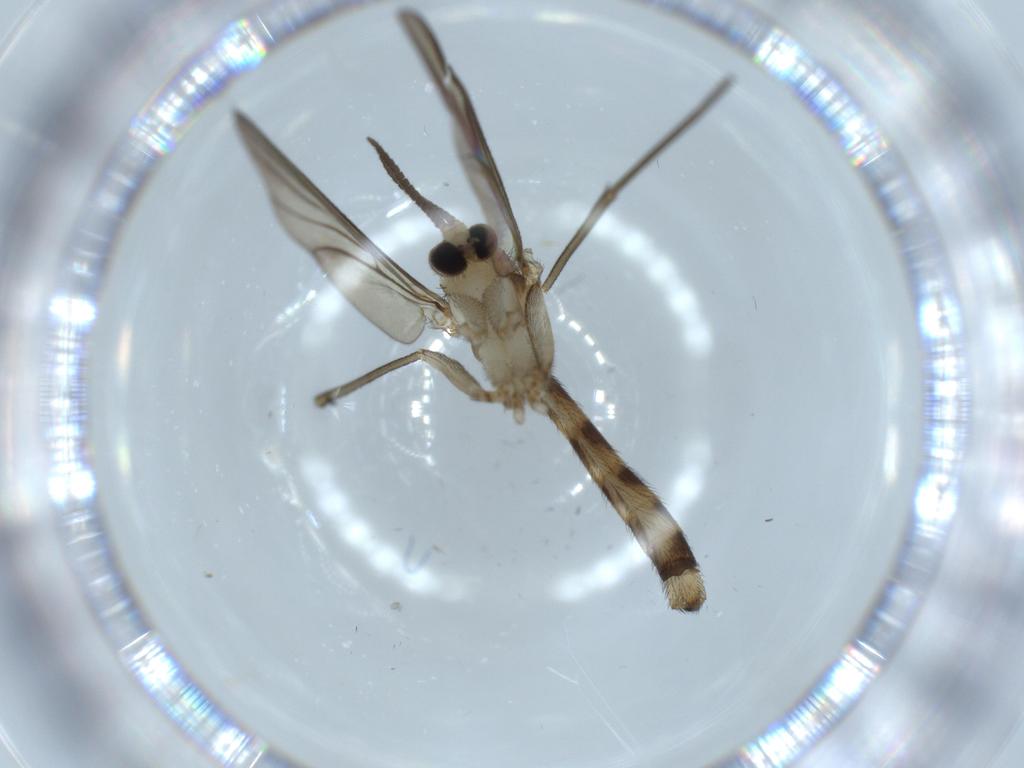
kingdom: Animalia
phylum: Arthropoda
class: Insecta
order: Diptera
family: Mycetophilidae
